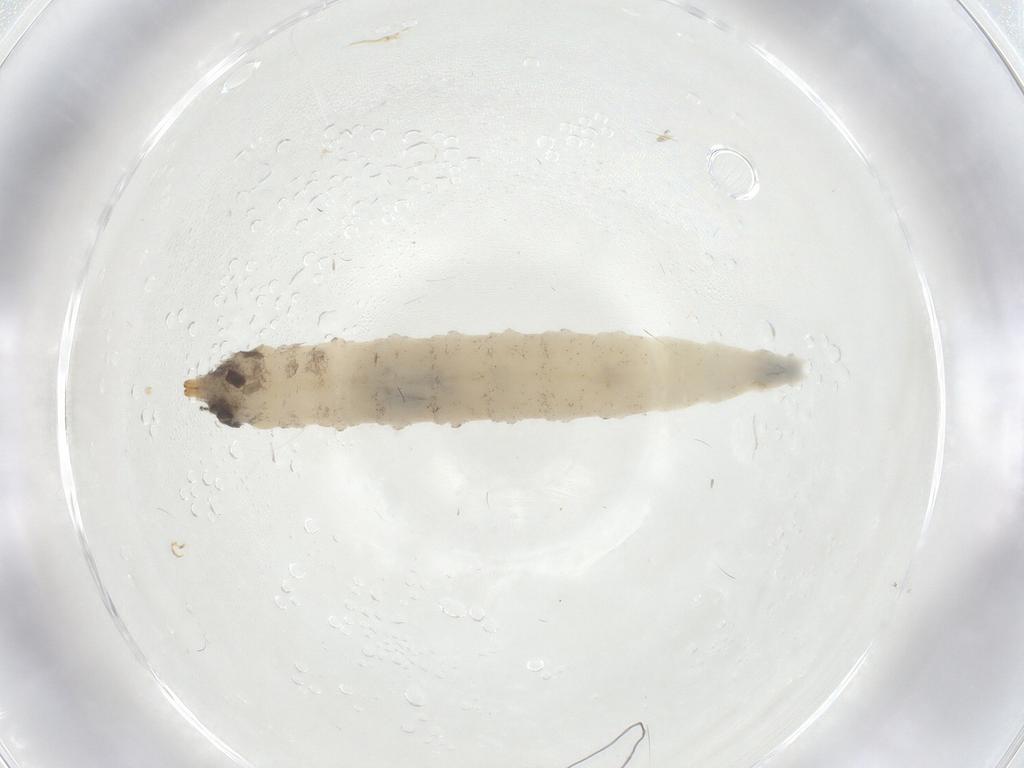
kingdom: Animalia
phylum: Arthropoda
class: Insecta
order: Diptera
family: Drosophilidae
